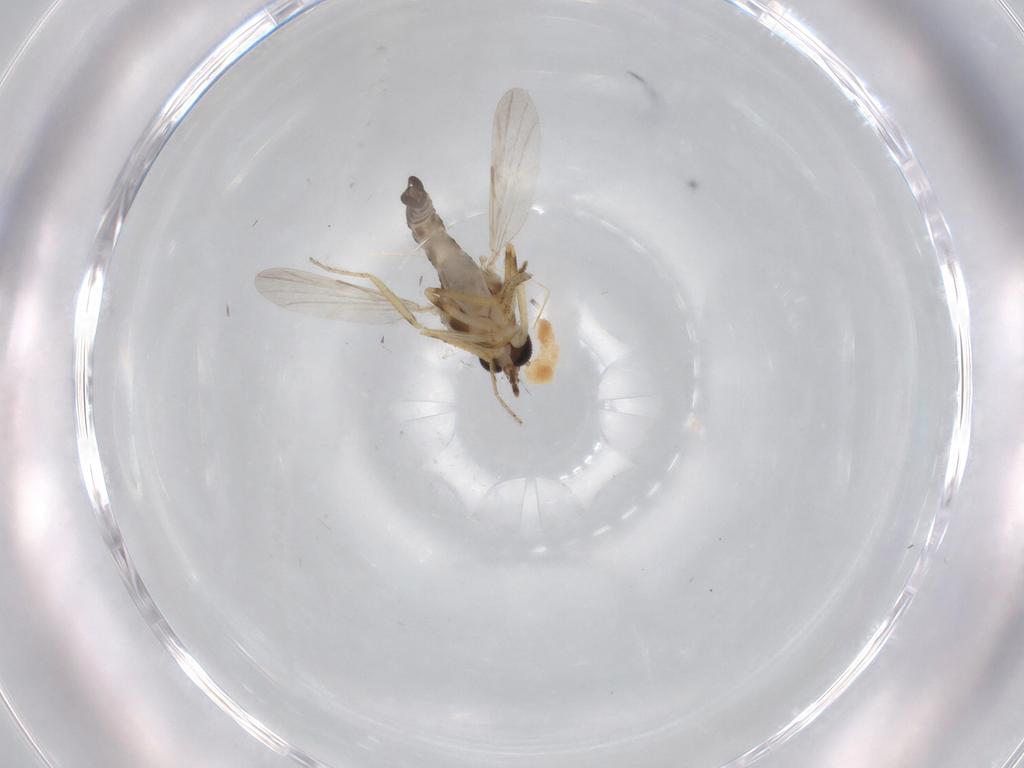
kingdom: Animalia
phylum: Arthropoda
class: Insecta
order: Diptera
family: Ceratopogonidae
